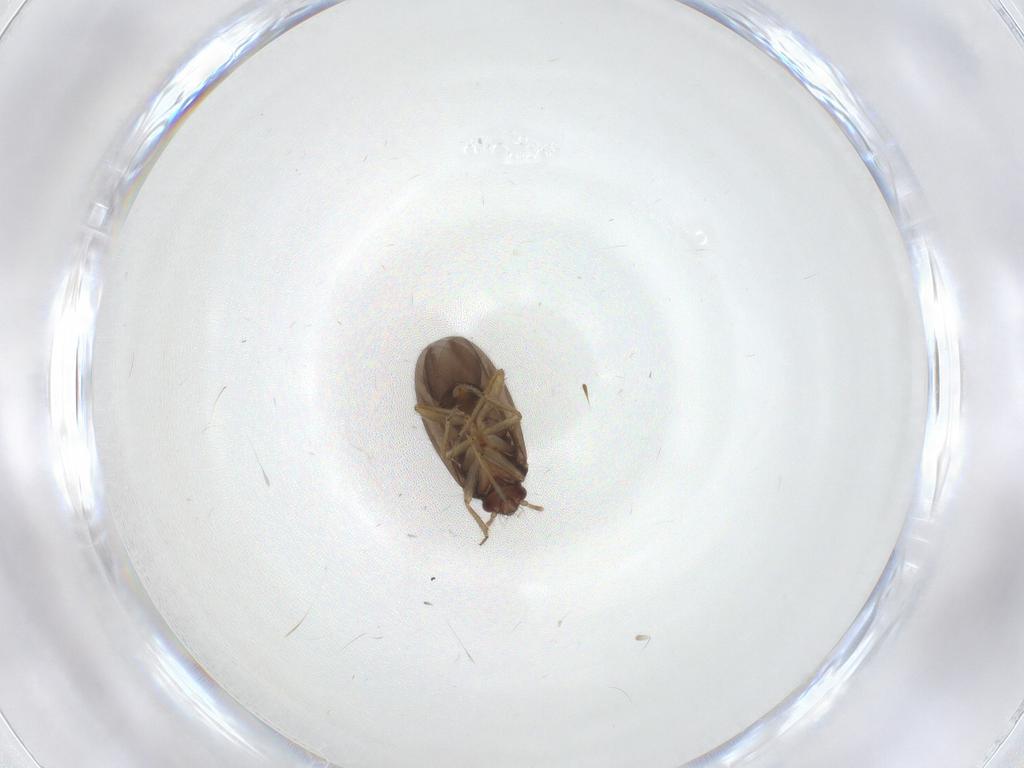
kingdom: Animalia
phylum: Arthropoda
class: Insecta
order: Hemiptera
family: Ceratocombidae
